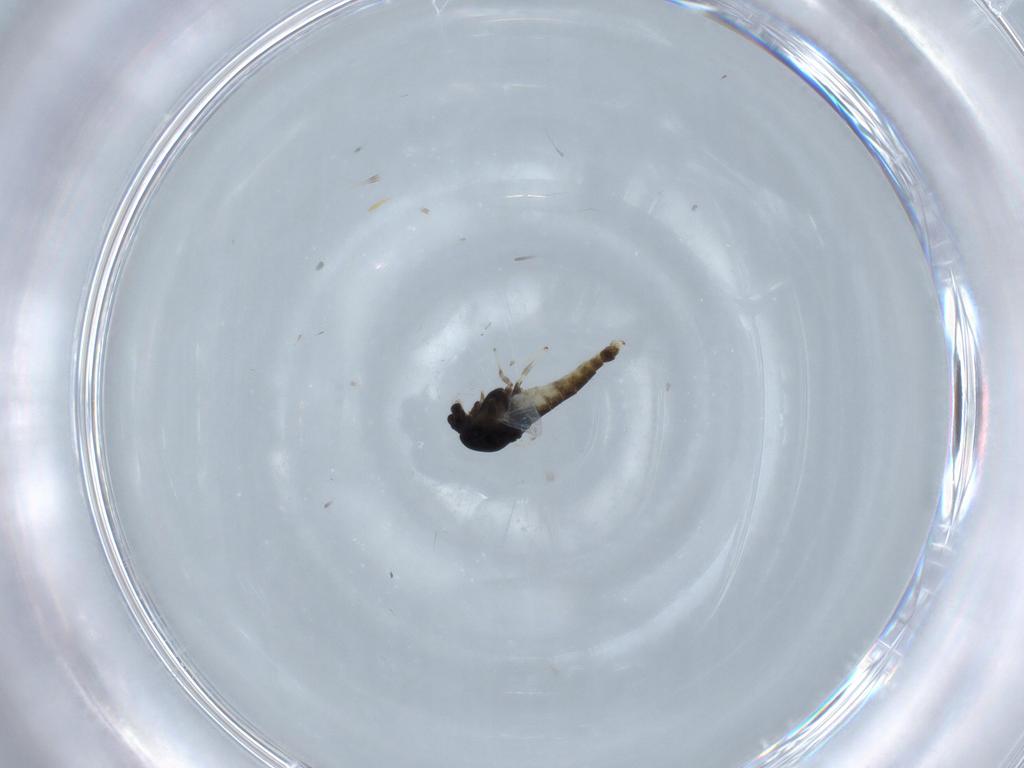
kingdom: Animalia
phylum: Arthropoda
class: Insecta
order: Diptera
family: Chironomidae
